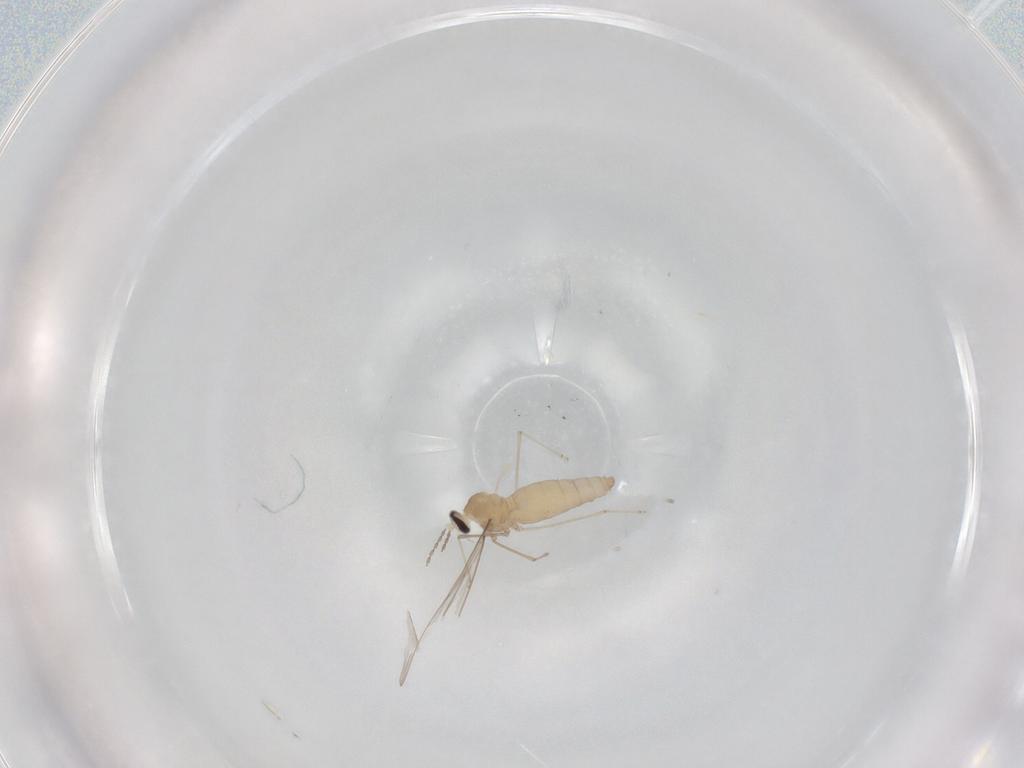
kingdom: Animalia
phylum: Arthropoda
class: Insecta
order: Diptera
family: Cecidomyiidae
